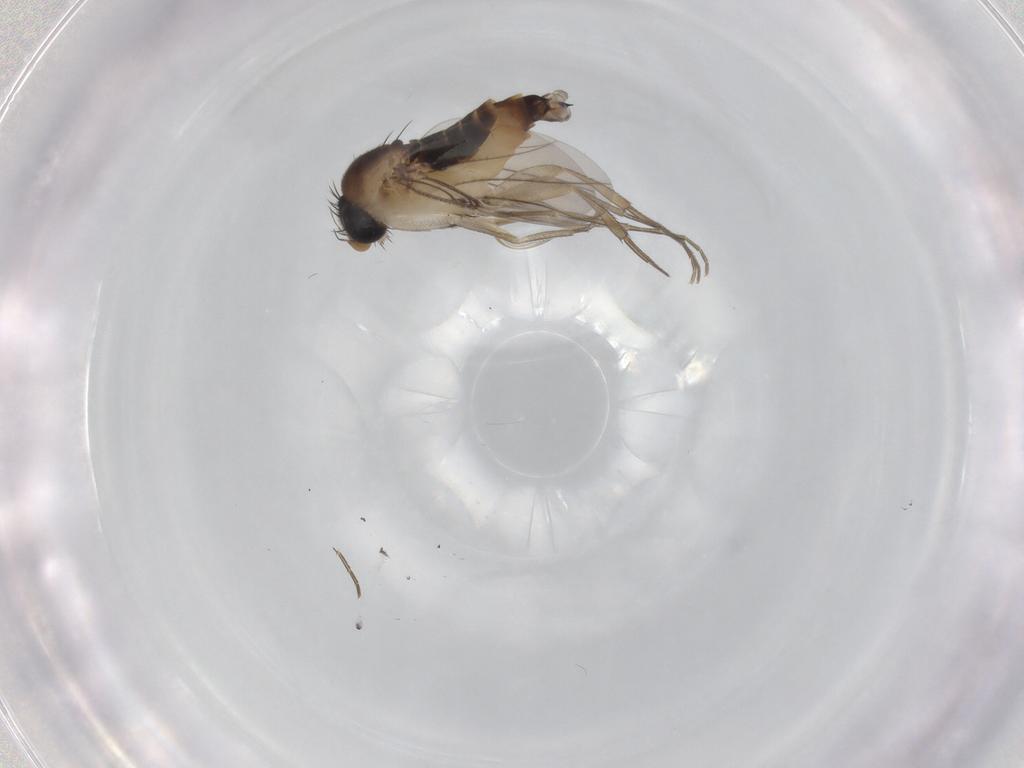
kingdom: Animalia
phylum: Arthropoda
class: Insecta
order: Diptera
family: Phoridae
